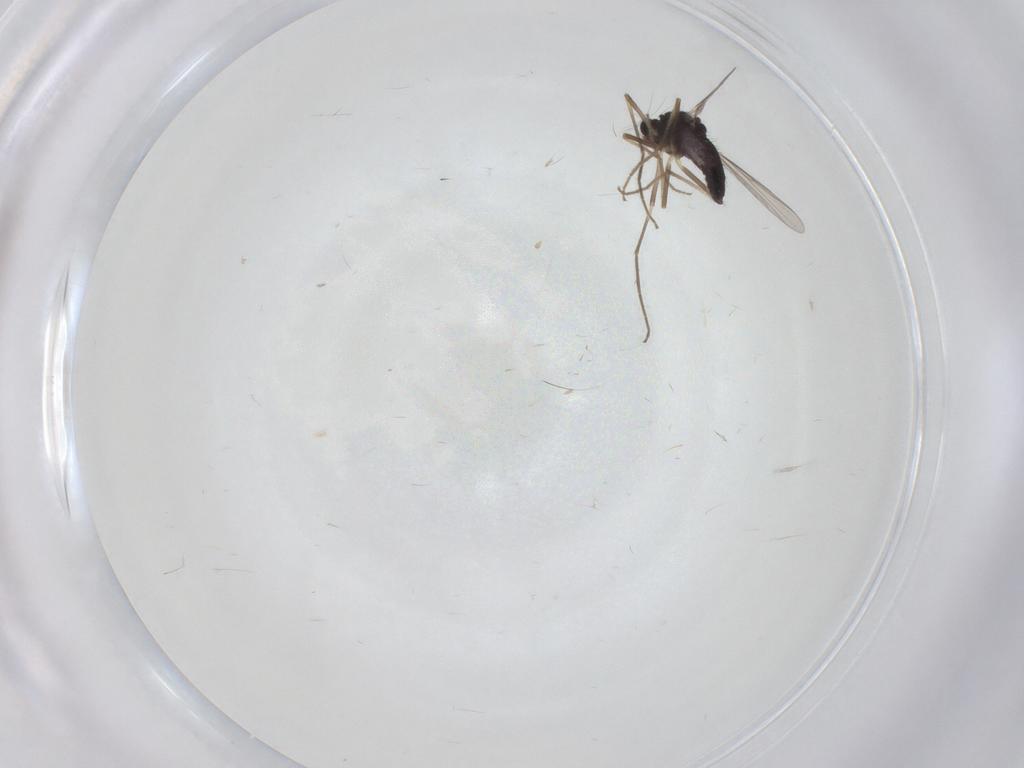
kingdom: Animalia
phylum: Arthropoda
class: Insecta
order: Diptera
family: Chironomidae
